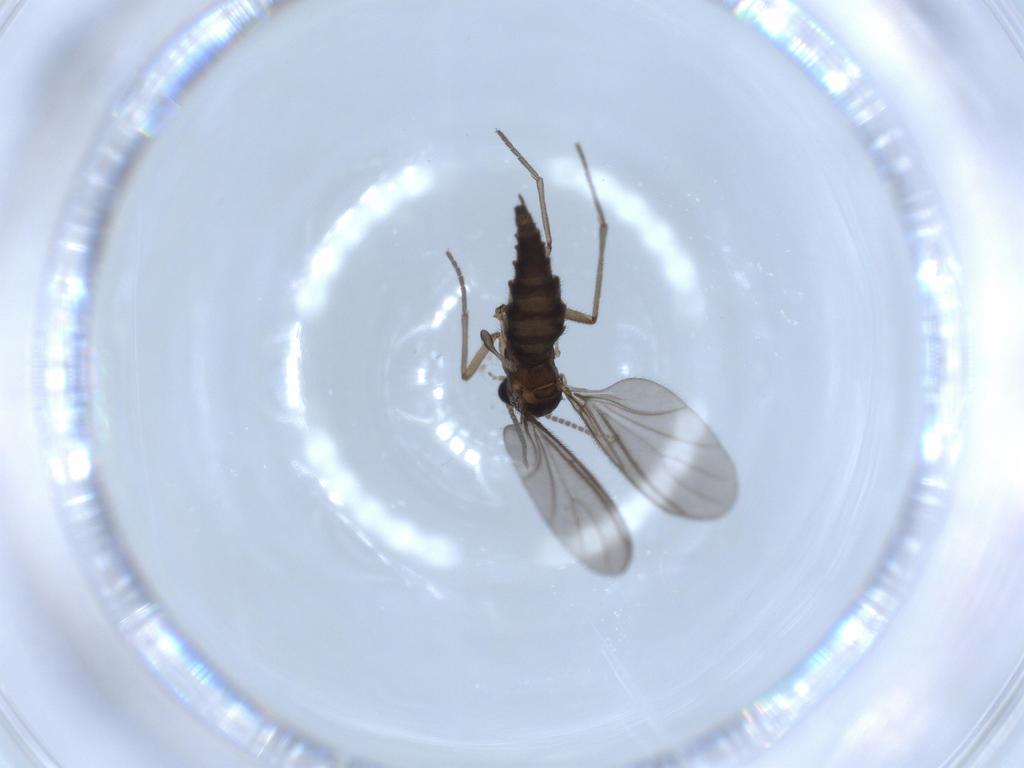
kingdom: Animalia
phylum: Arthropoda
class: Insecta
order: Diptera
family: Sciaridae
